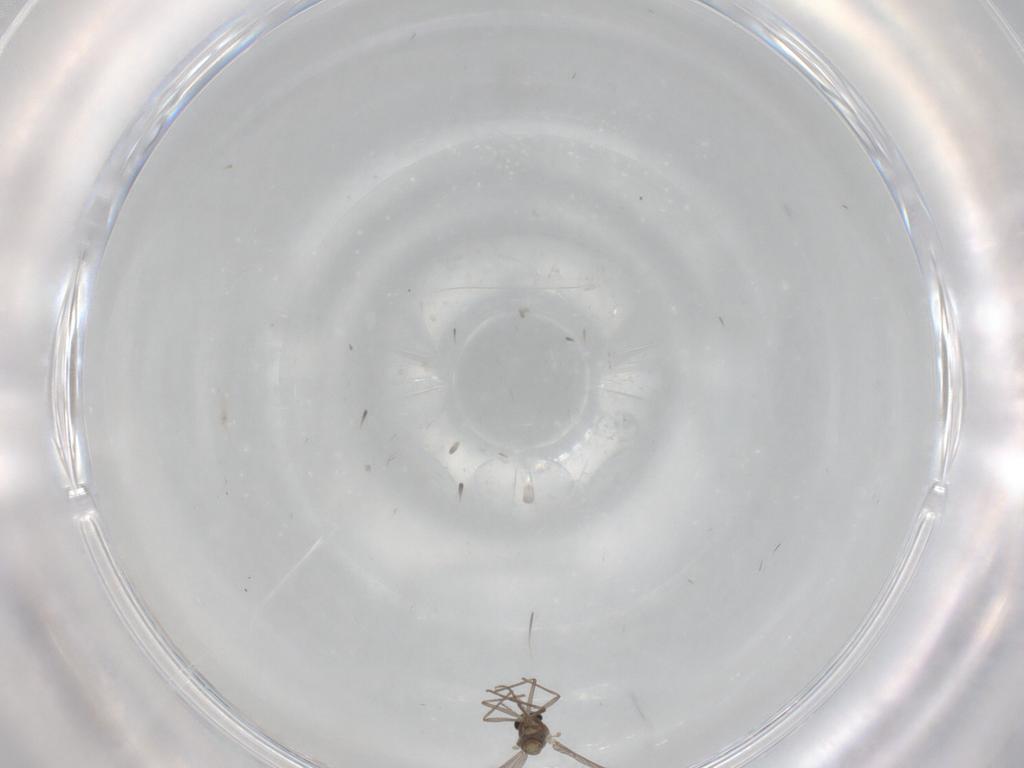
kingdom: Animalia
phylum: Arthropoda
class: Insecta
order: Diptera
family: Chironomidae
